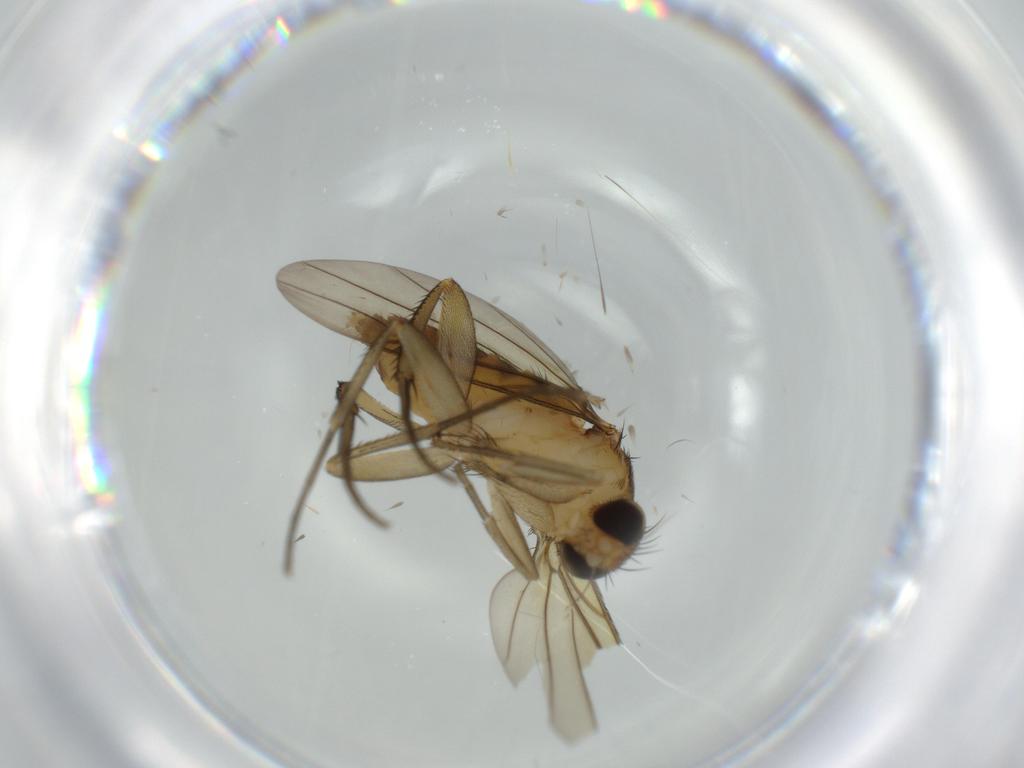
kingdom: Animalia
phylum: Arthropoda
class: Insecta
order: Diptera
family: Phoridae
